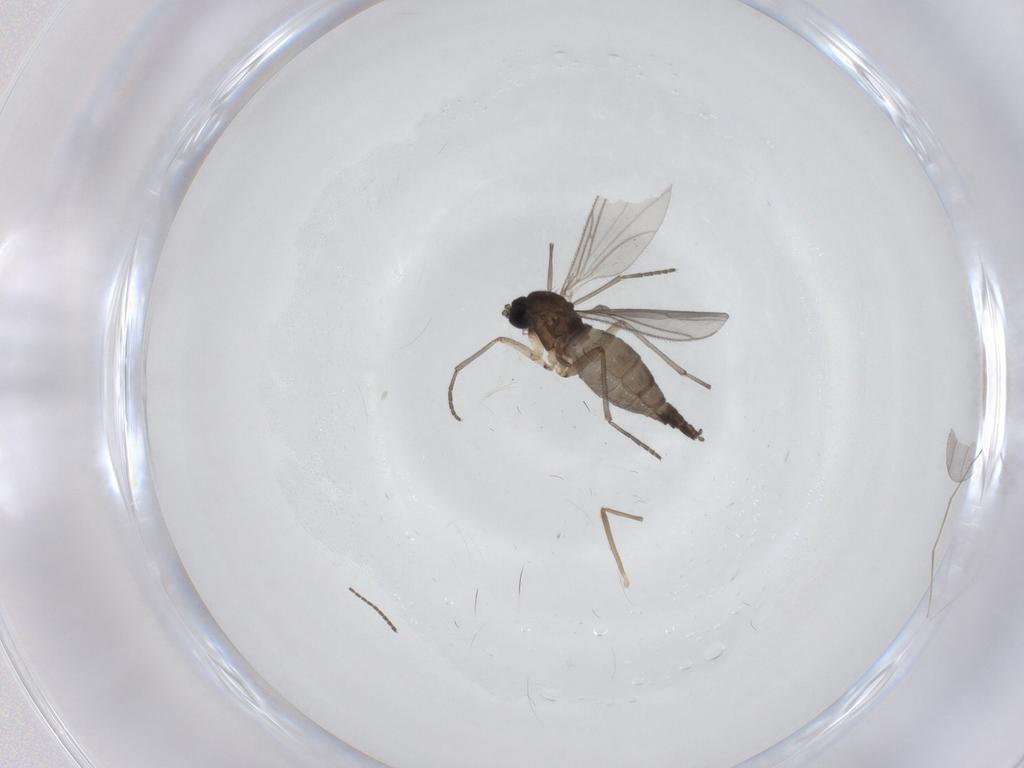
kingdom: Animalia
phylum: Arthropoda
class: Insecta
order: Diptera
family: Sciaridae
